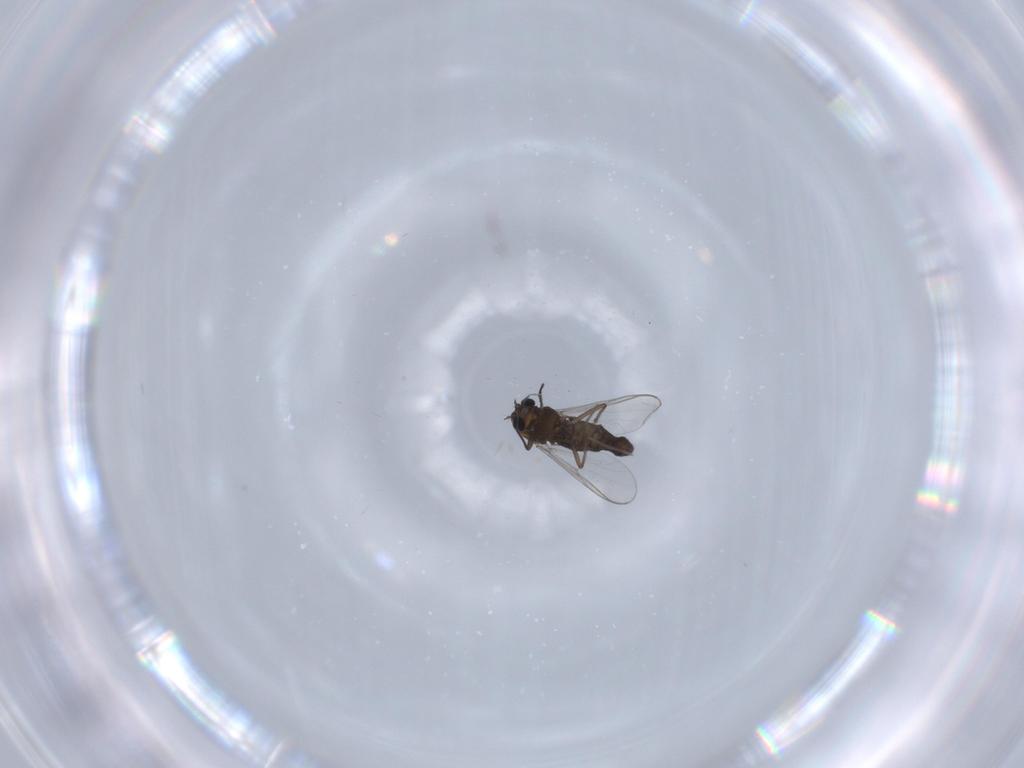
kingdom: Animalia
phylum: Arthropoda
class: Insecta
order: Diptera
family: Chironomidae
